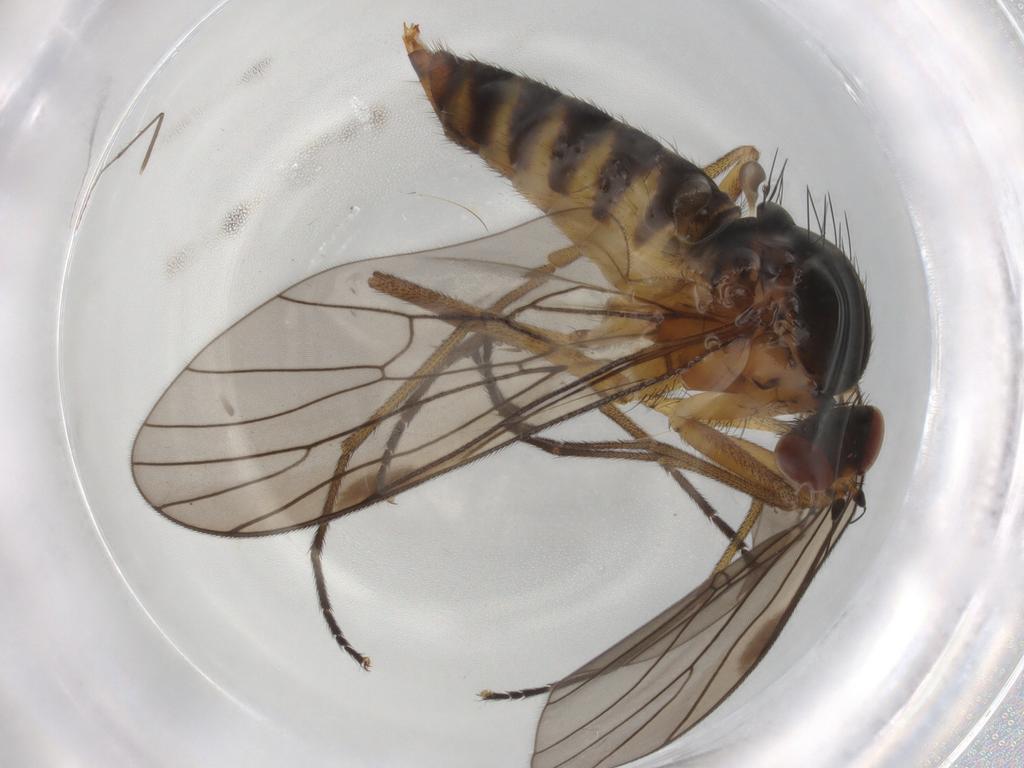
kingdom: Animalia
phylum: Arthropoda
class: Insecta
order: Diptera
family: Brachystomatidae
